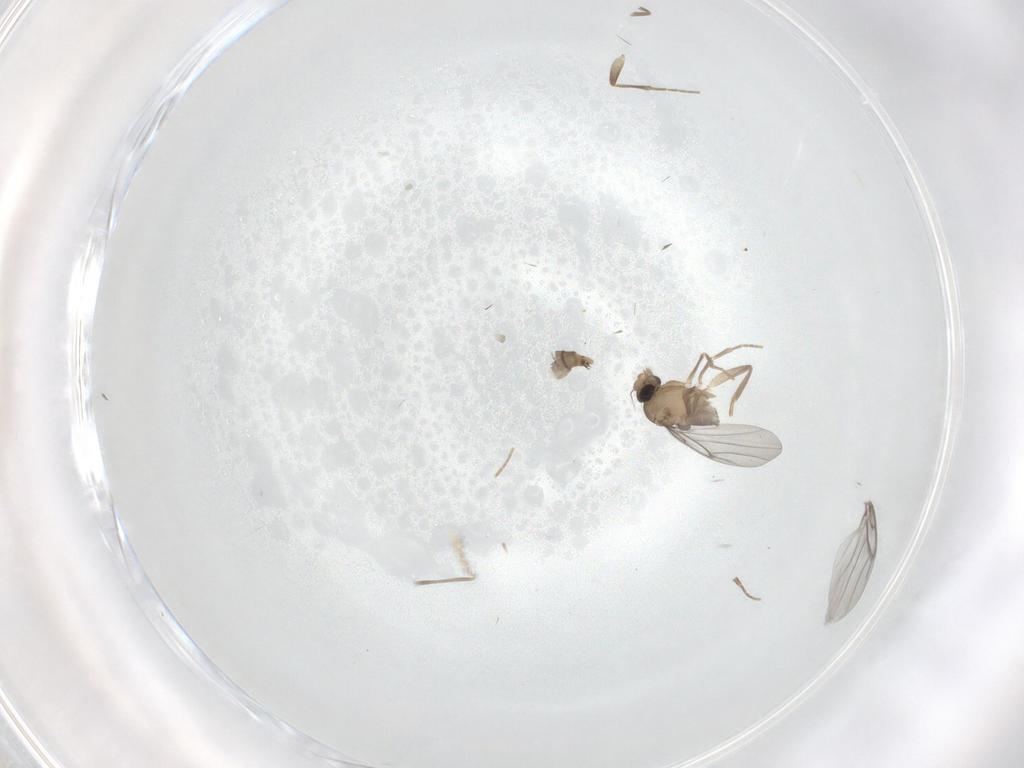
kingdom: Animalia
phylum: Arthropoda
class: Insecta
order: Diptera
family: Chironomidae
